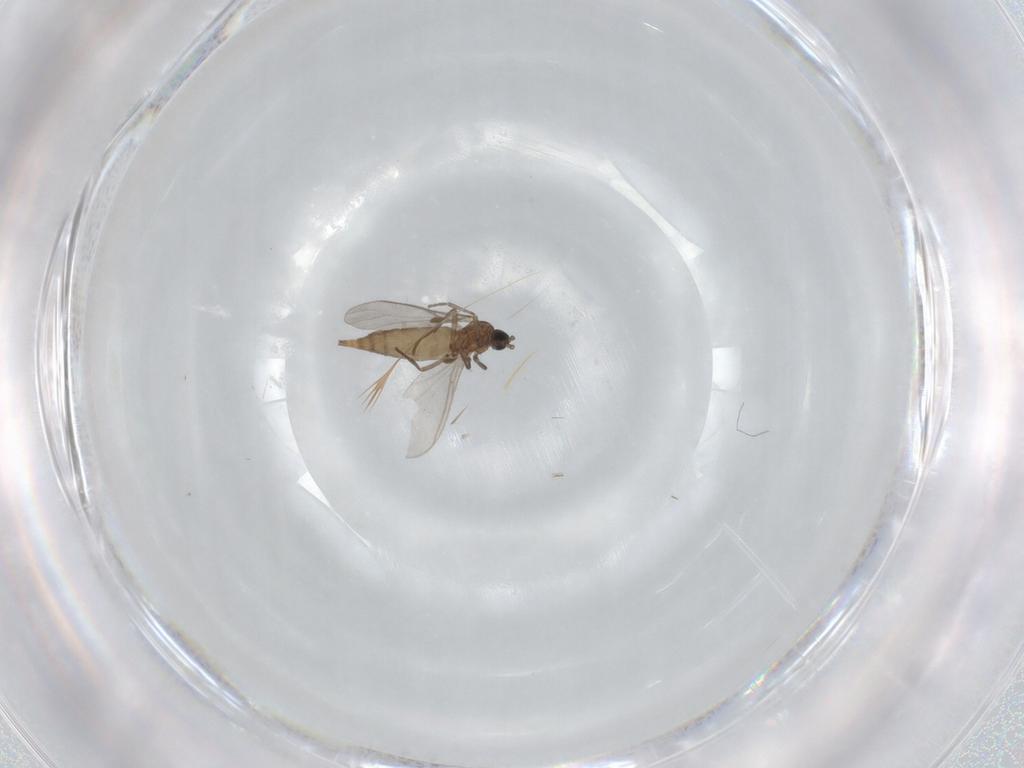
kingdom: Animalia
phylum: Arthropoda
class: Insecta
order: Diptera
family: Sciaridae
